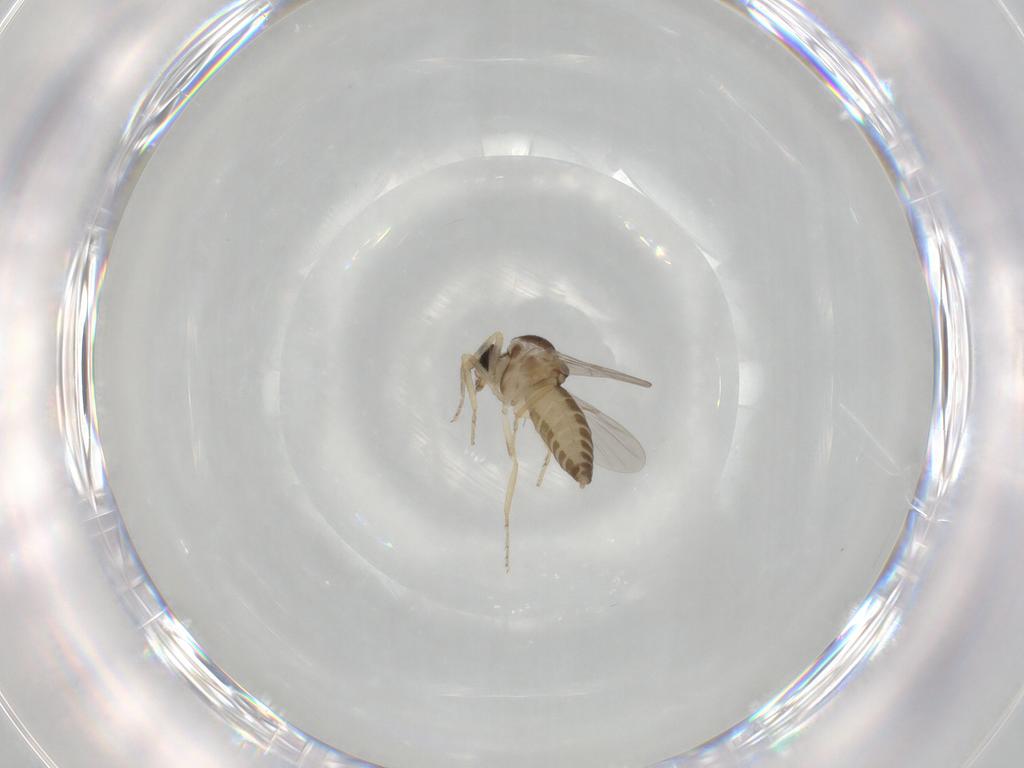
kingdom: Animalia
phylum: Arthropoda
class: Insecta
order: Diptera
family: Ceratopogonidae
